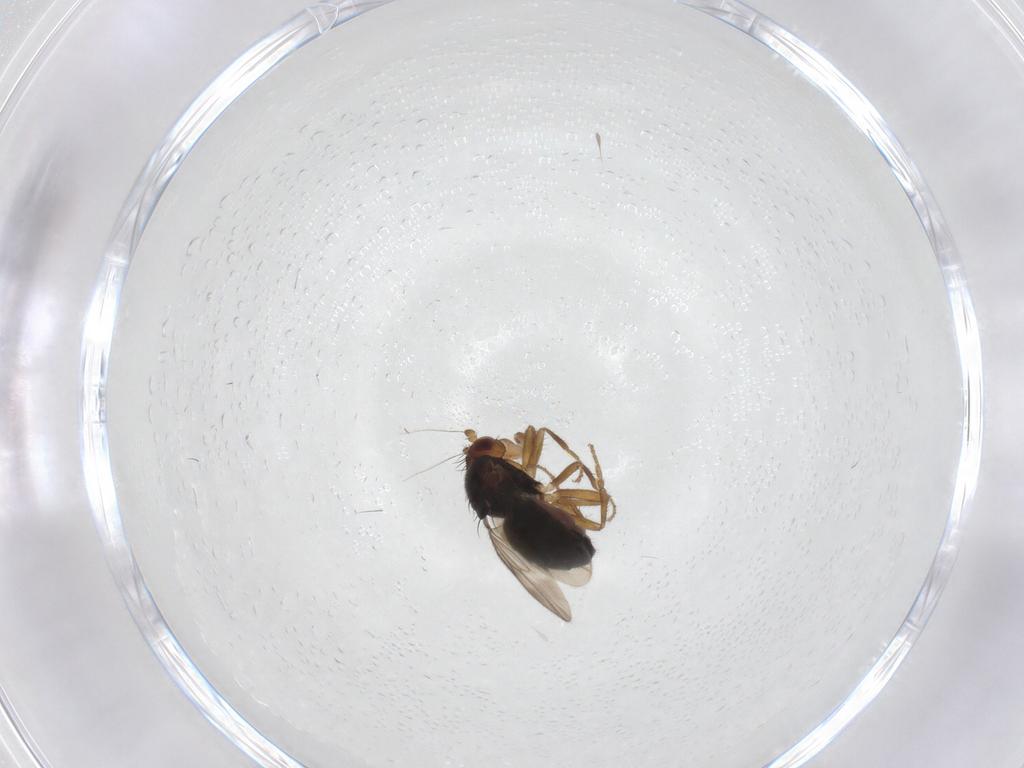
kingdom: Animalia
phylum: Arthropoda
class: Insecta
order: Diptera
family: Sphaeroceridae
